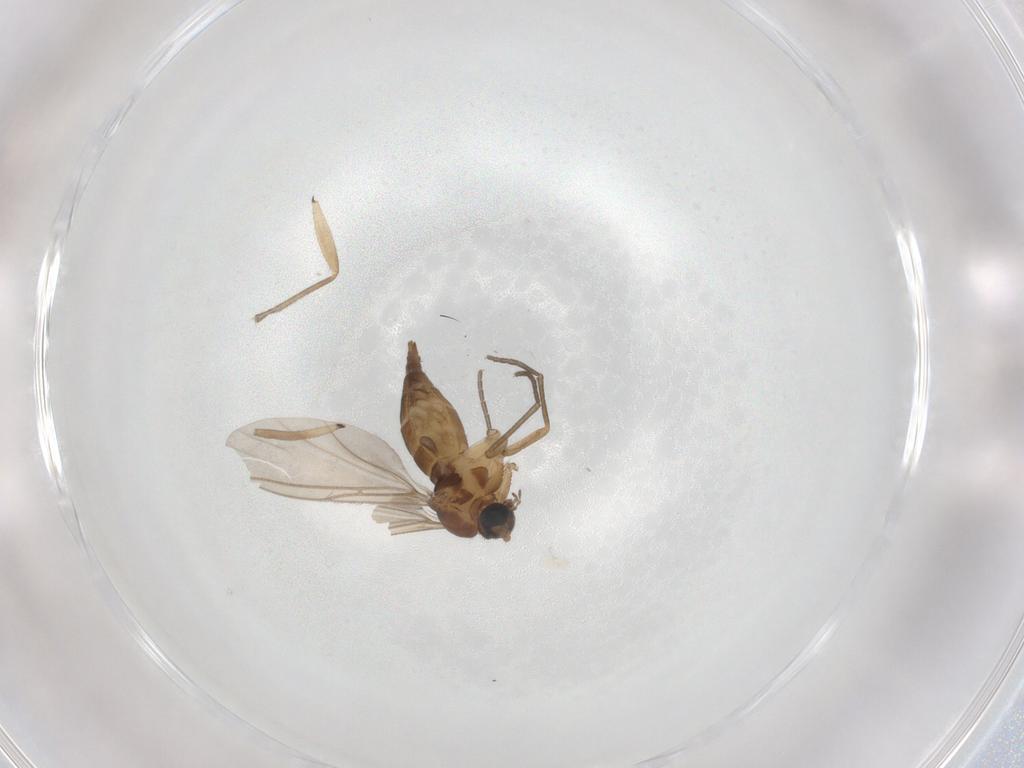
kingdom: Animalia
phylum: Arthropoda
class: Insecta
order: Diptera
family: Sciaridae
